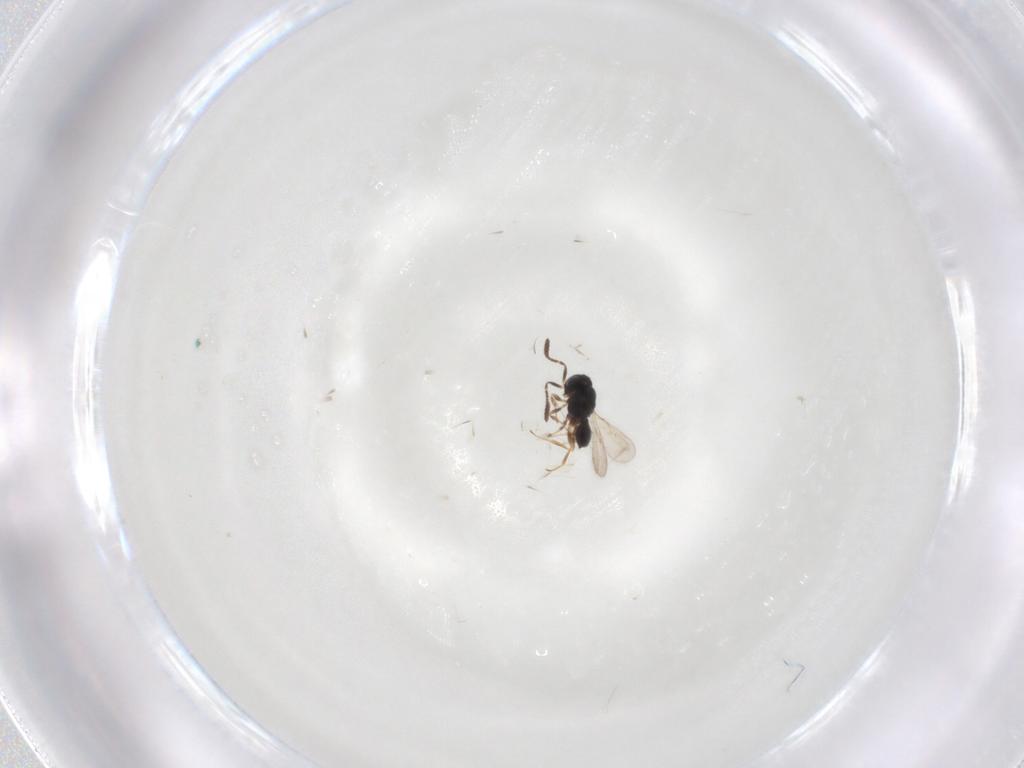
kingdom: Animalia
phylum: Arthropoda
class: Insecta
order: Hymenoptera
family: Scelionidae
